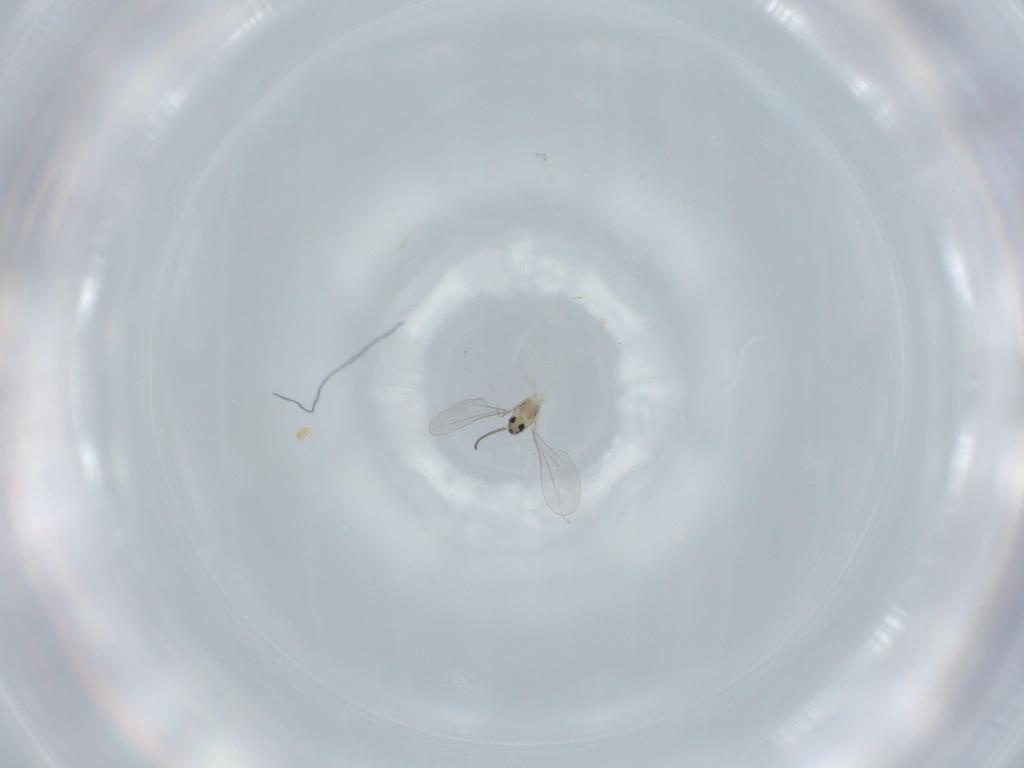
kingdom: Animalia
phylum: Arthropoda
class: Insecta
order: Diptera
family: Cecidomyiidae
